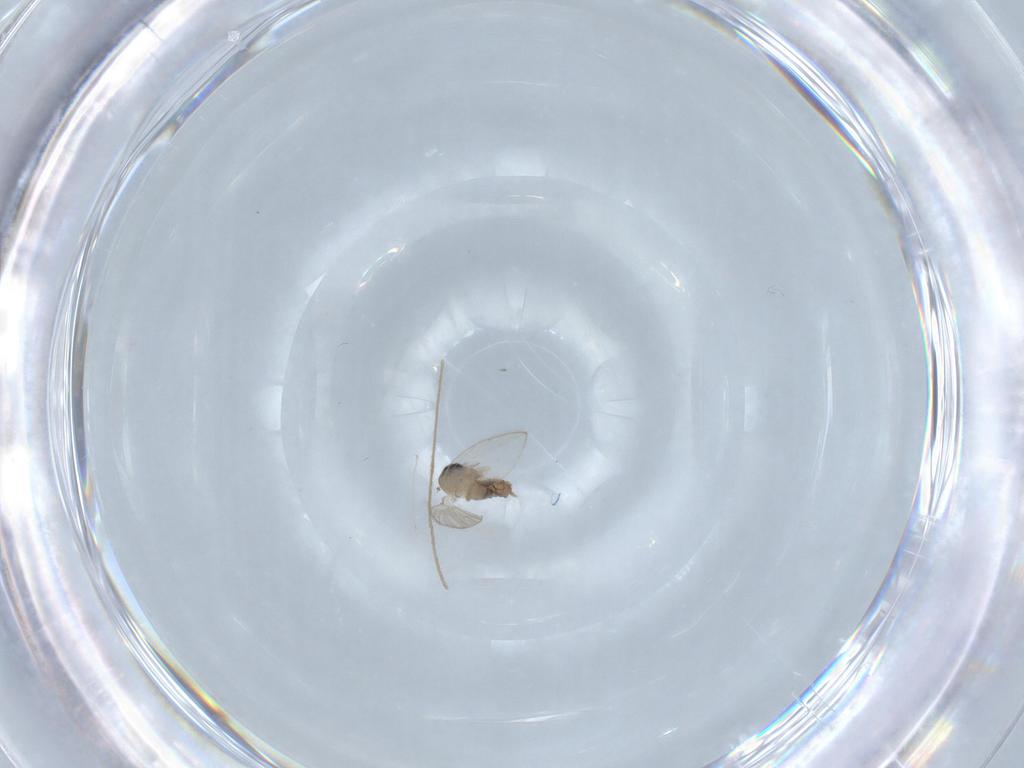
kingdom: Animalia
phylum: Arthropoda
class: Insecta
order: Diptera
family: Psychodidae
